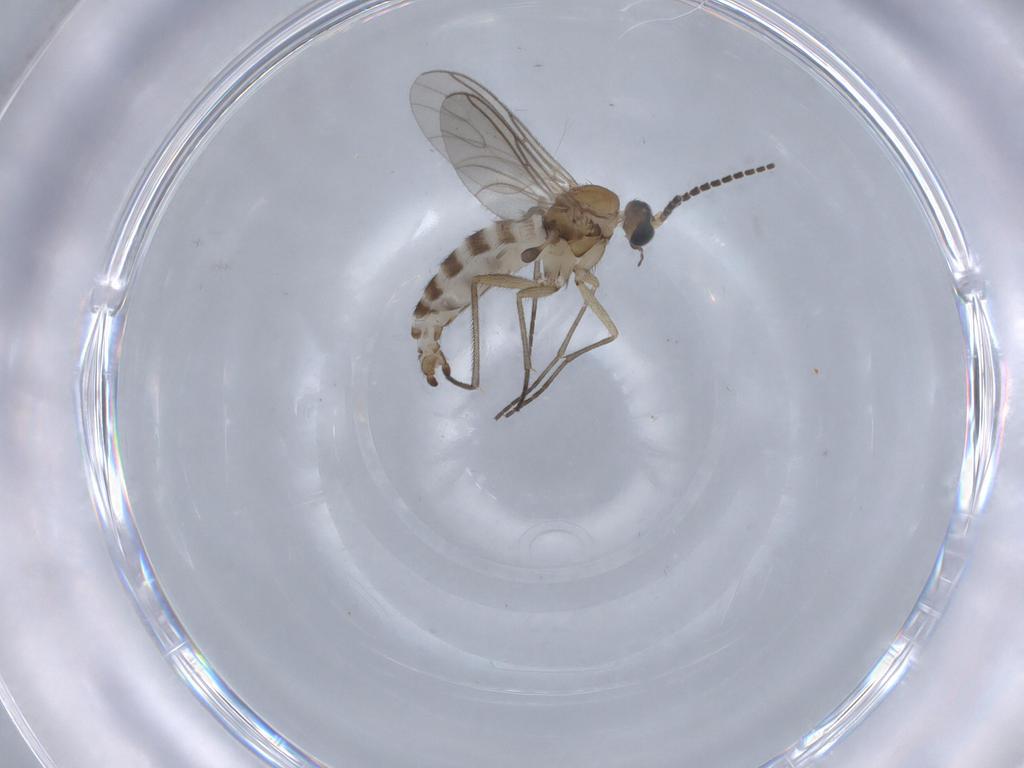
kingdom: Animalia
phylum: Arthropoda
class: Insecta
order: Diptera
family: Sciaridae
